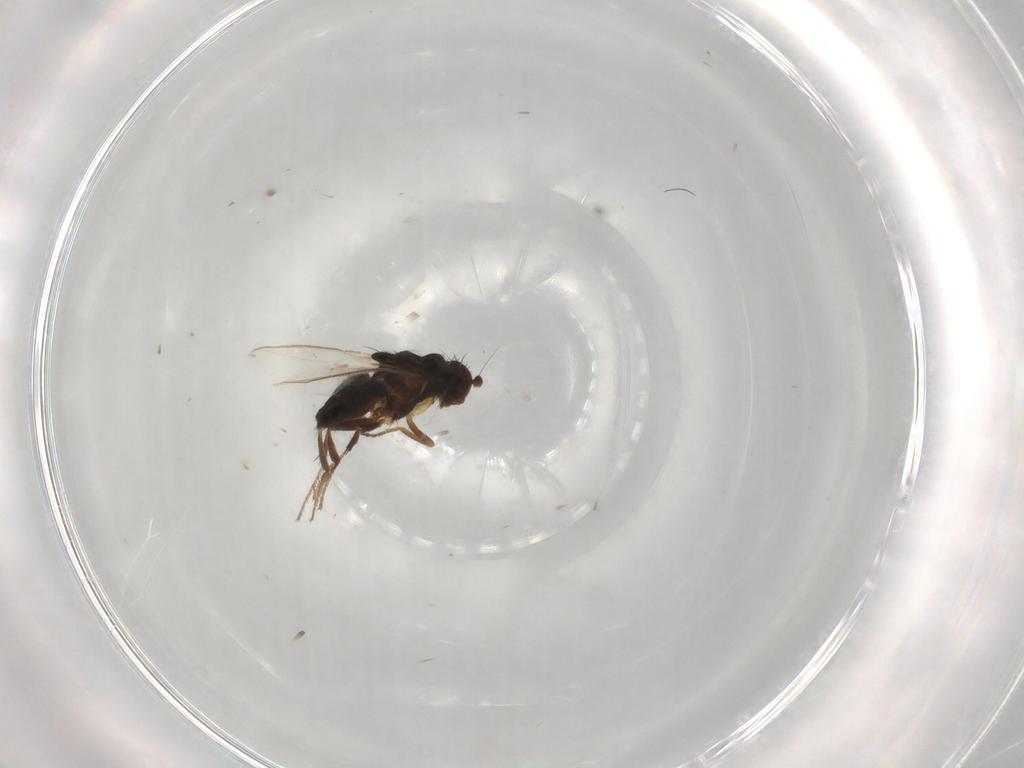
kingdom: Animalia
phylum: Arthropoda
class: Insecta
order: Diptera
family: Sphaeroceridae
